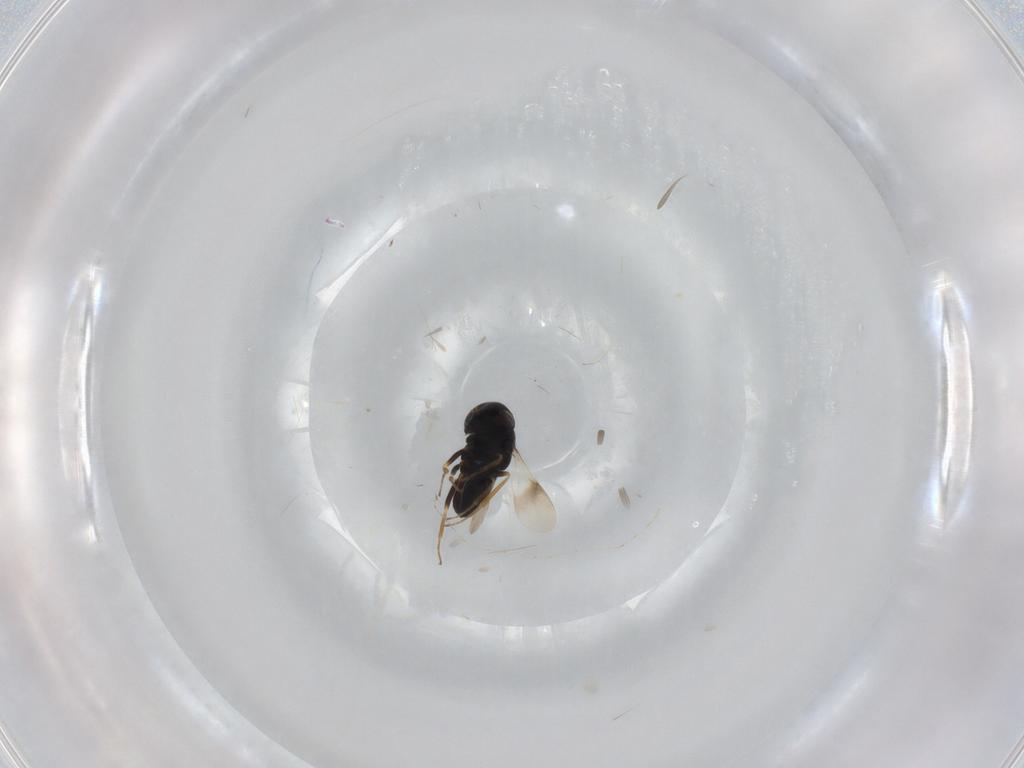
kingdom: Animalia
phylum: Arthropoda
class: Insecta
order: Hymenoptera
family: Scelionidae
